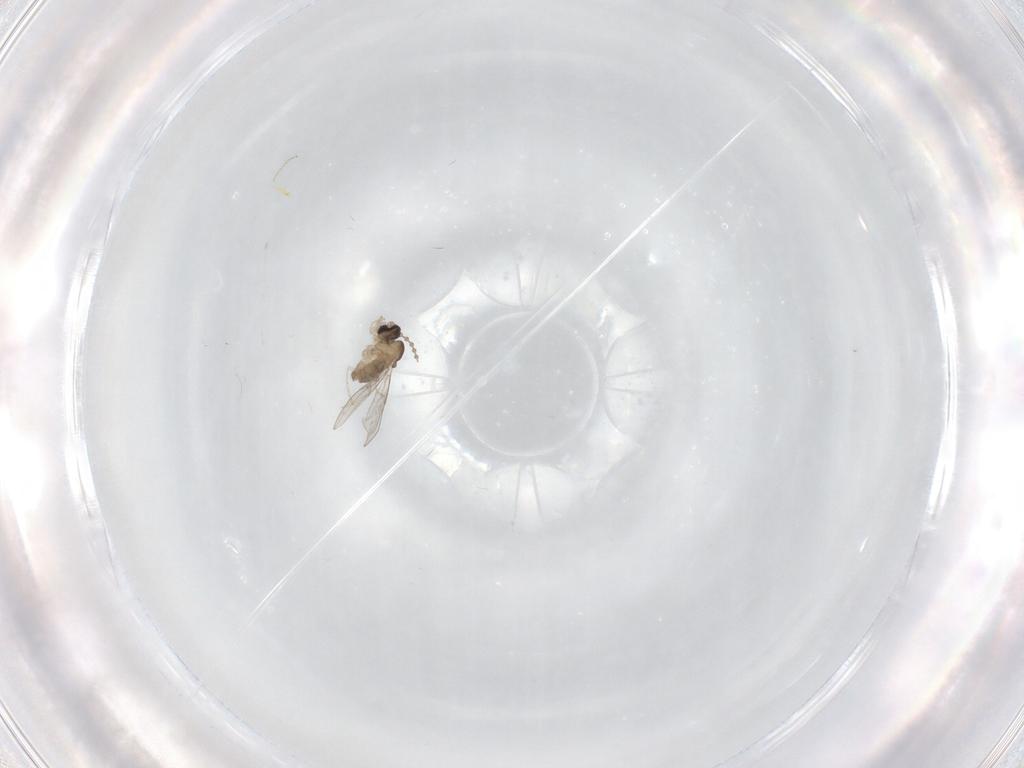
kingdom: Animalia
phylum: Arthropoda
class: Insecta
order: Diptera
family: Cecidomyiidae
